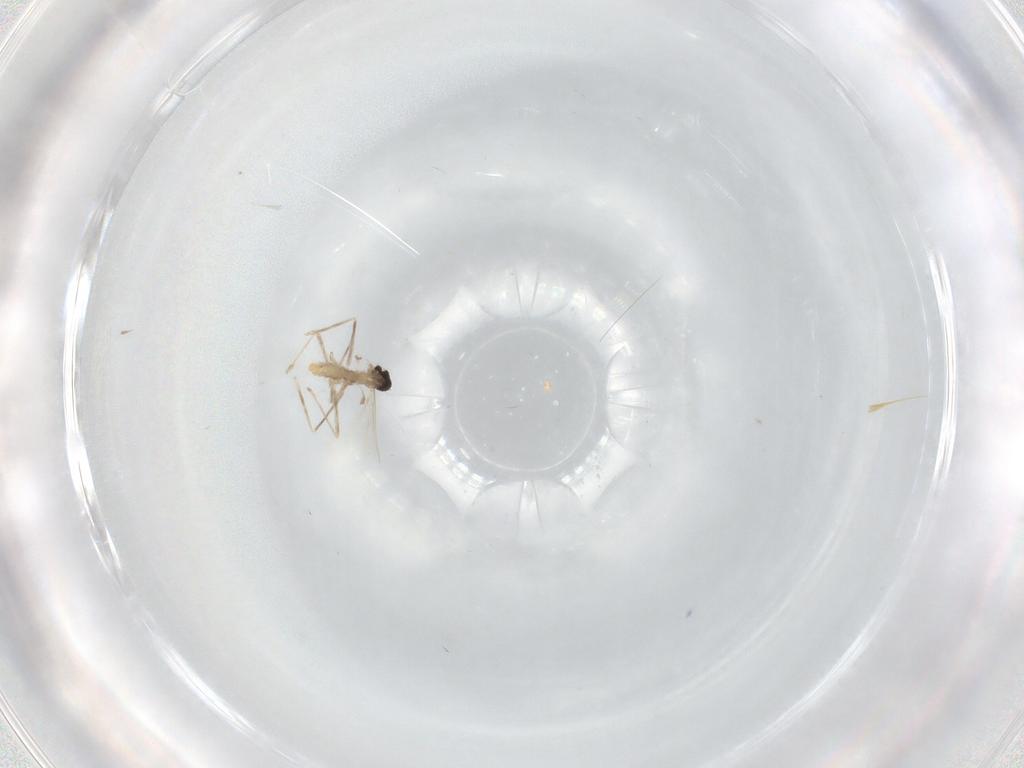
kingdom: Animalia
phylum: Arthropoda
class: Insecta
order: Diptera
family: Cecidomyiidae
